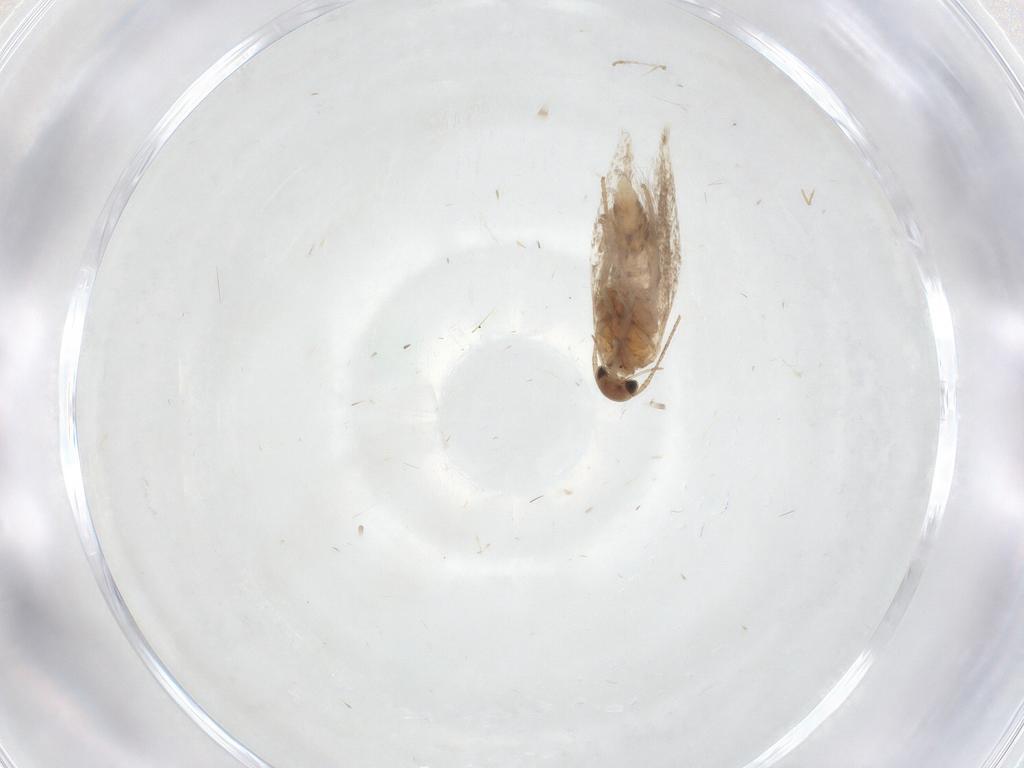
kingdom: Animalia
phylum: Arthropoda
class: Insecta
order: Lepidoptera
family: Gelechiidae
